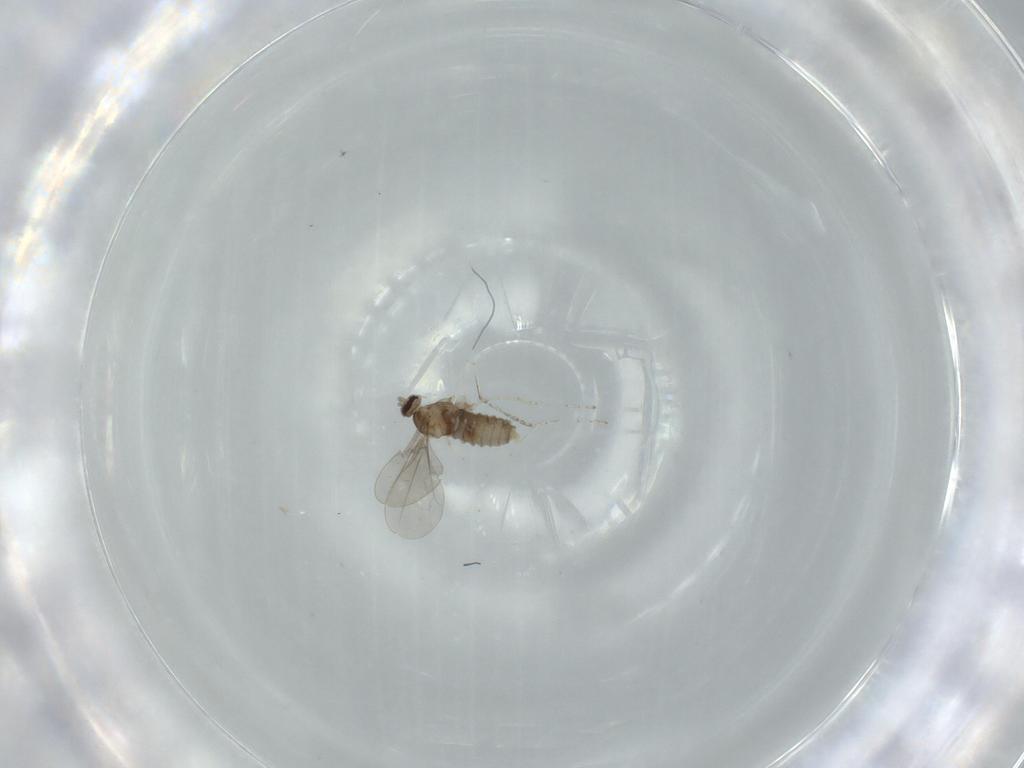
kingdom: Animalia
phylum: Arthropoda
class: Insecta
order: Diptera
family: Cecidomyiidae
